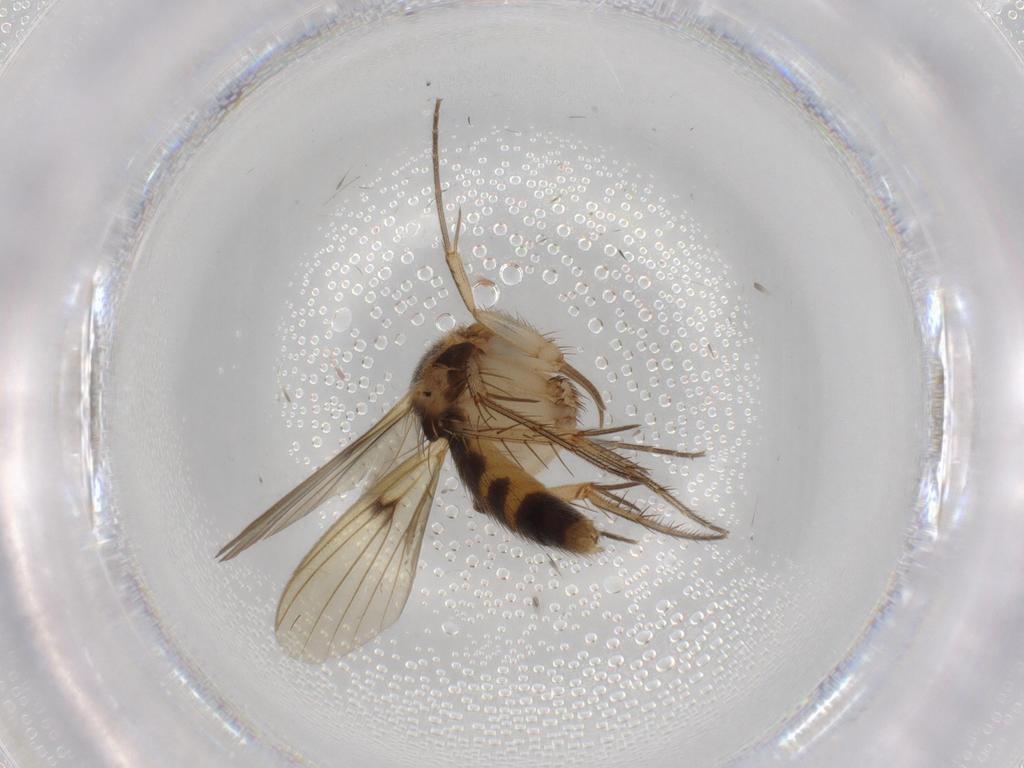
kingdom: Animalia
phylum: Arthropoda
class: Insecta
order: Diptera
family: Mycetophilidae
